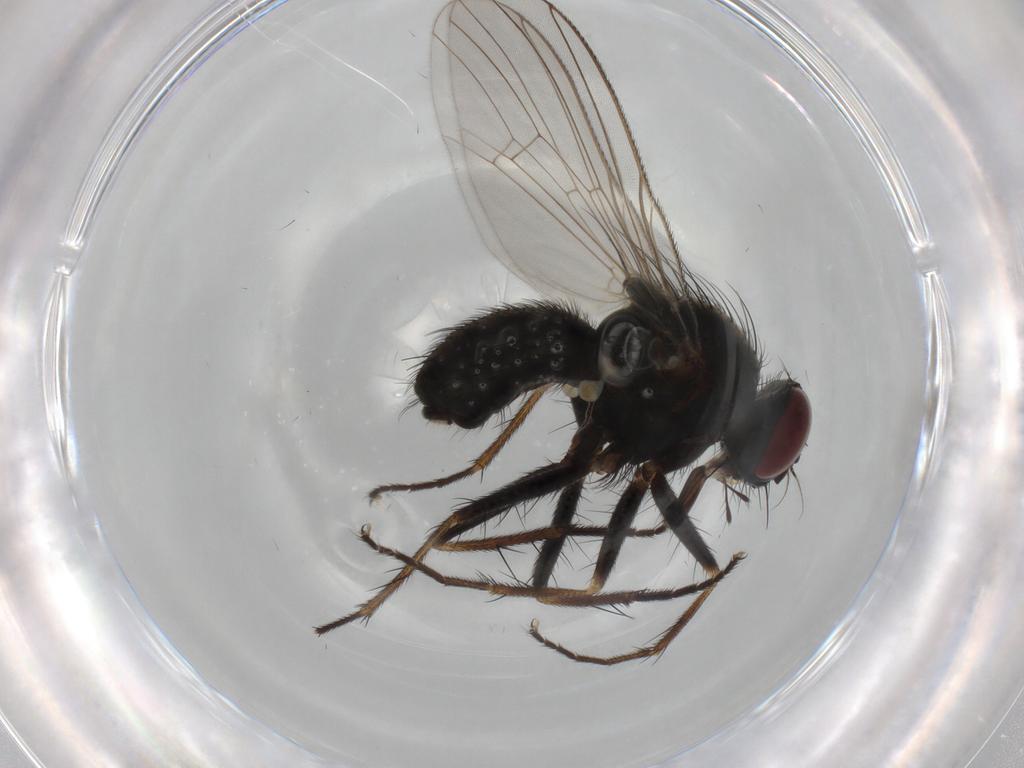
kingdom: Animalia
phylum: Arthropoda
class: Insecta
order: Diptera
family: Muscidae
